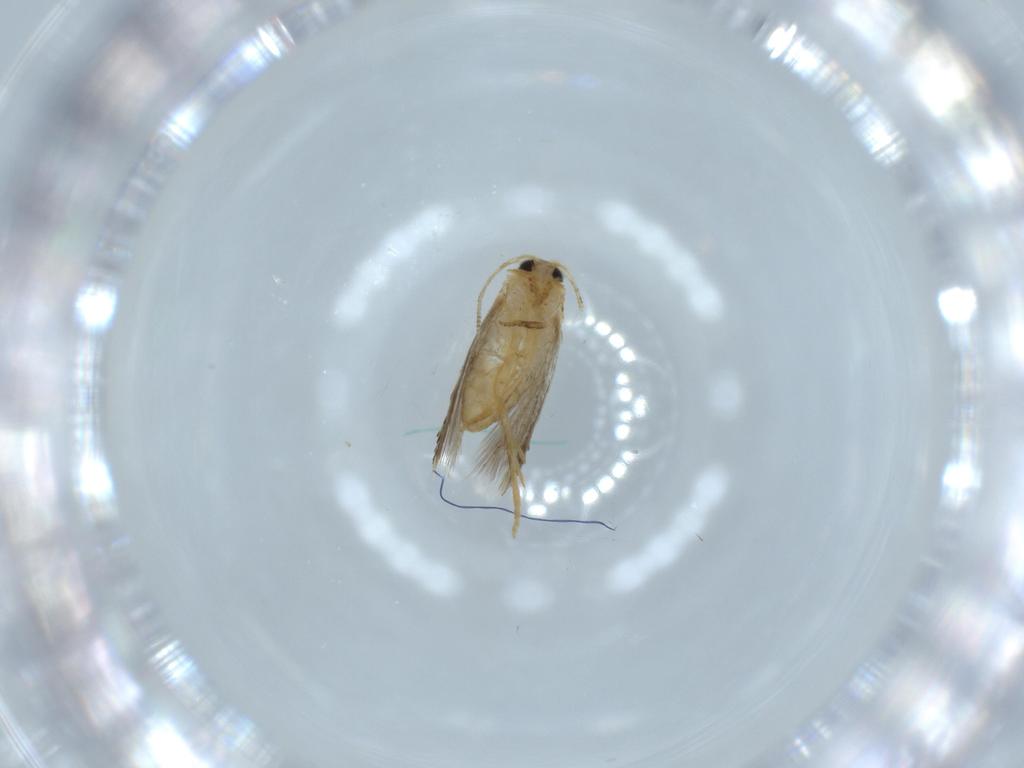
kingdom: Animalia
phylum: Arthropoda
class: Insecta
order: Lepidoptera
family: Nepticulidae
